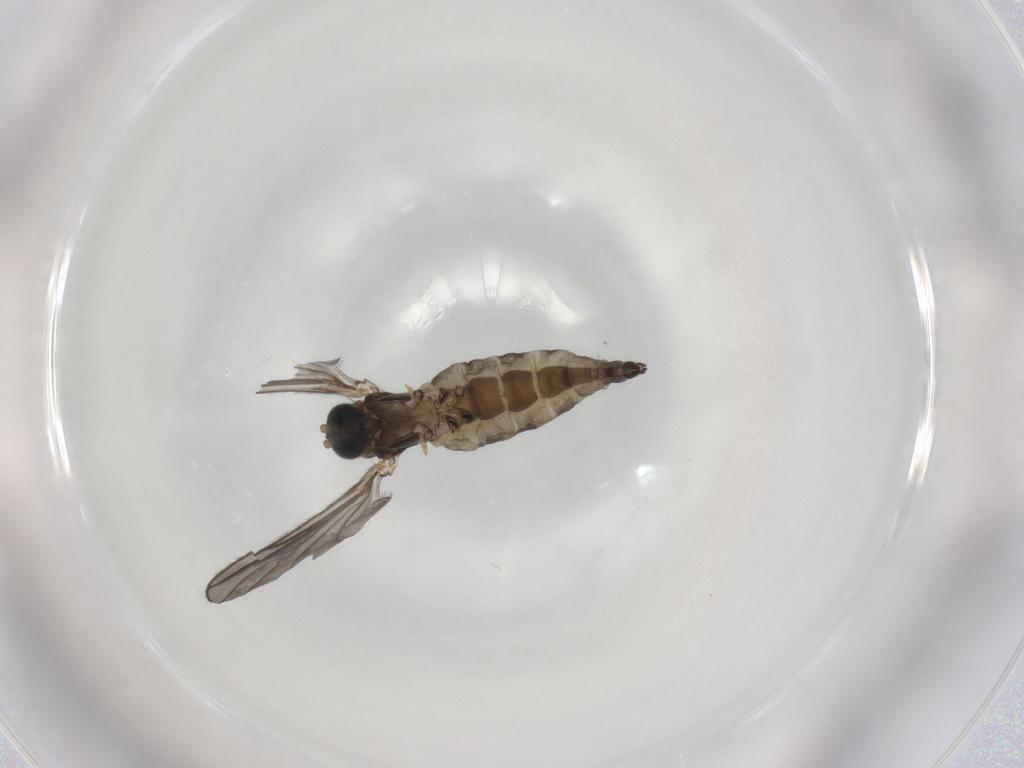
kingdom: Animalia
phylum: Arthropoda
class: Insecta
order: Diptera
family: Sciaridae
